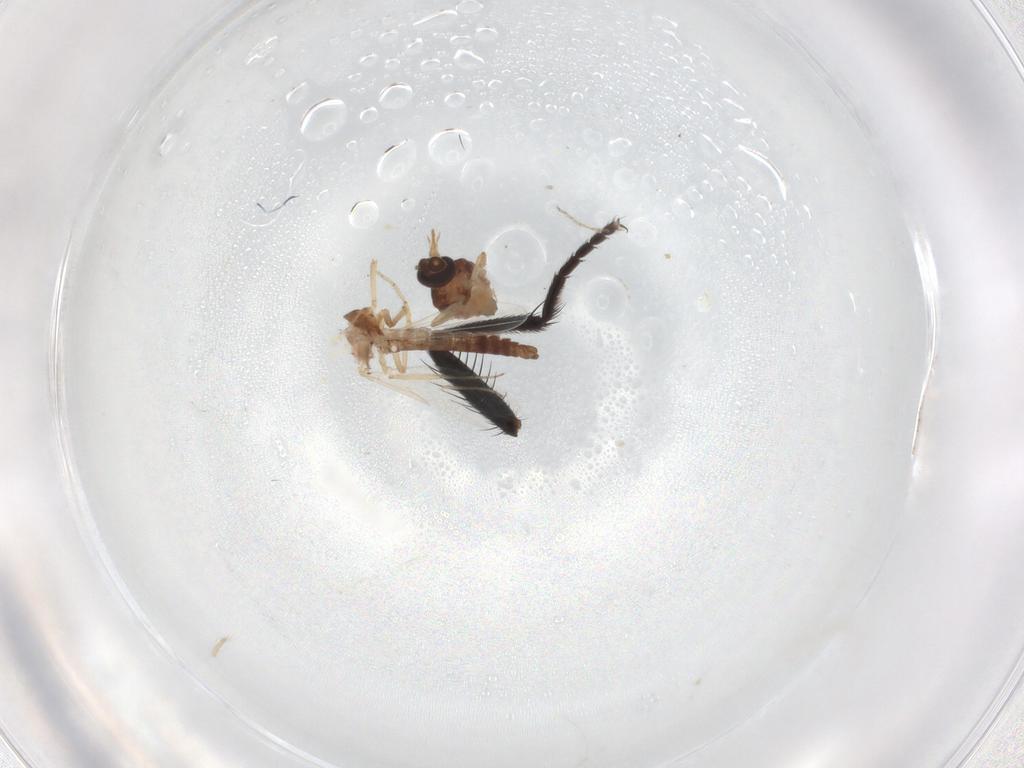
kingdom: Animalia
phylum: Arthropoda
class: Insecta
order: Diptera
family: Ceratopogonidae
